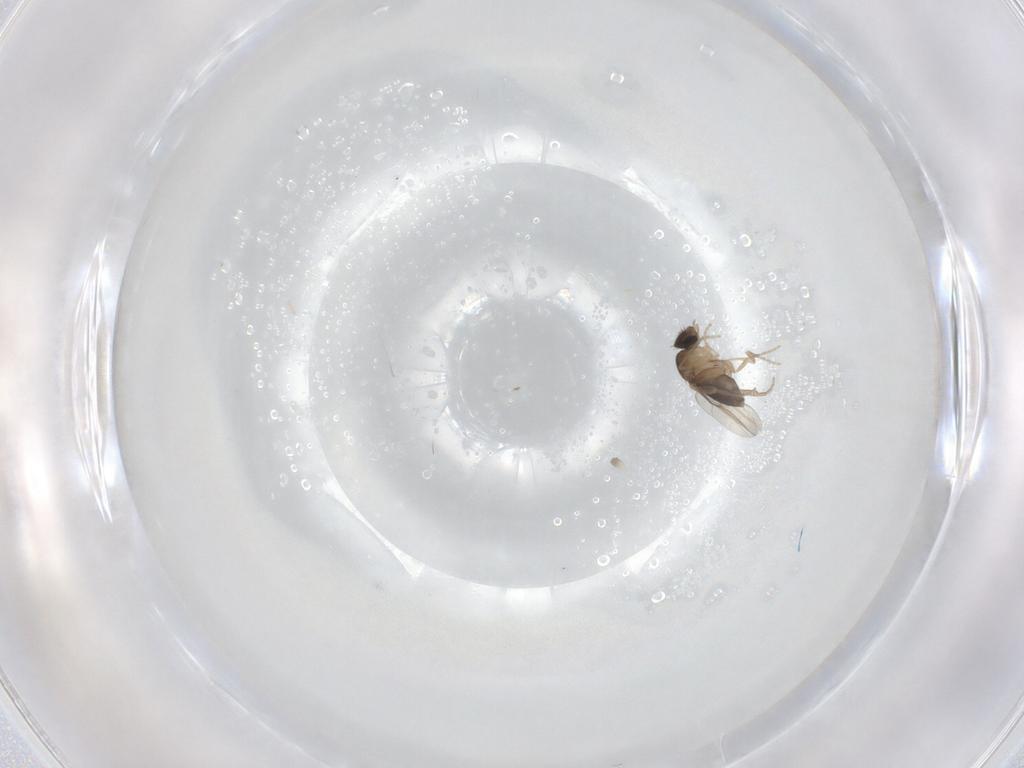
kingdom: Animalia
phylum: Arthropoda
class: Insecta
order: Diptera
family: Phoridae
